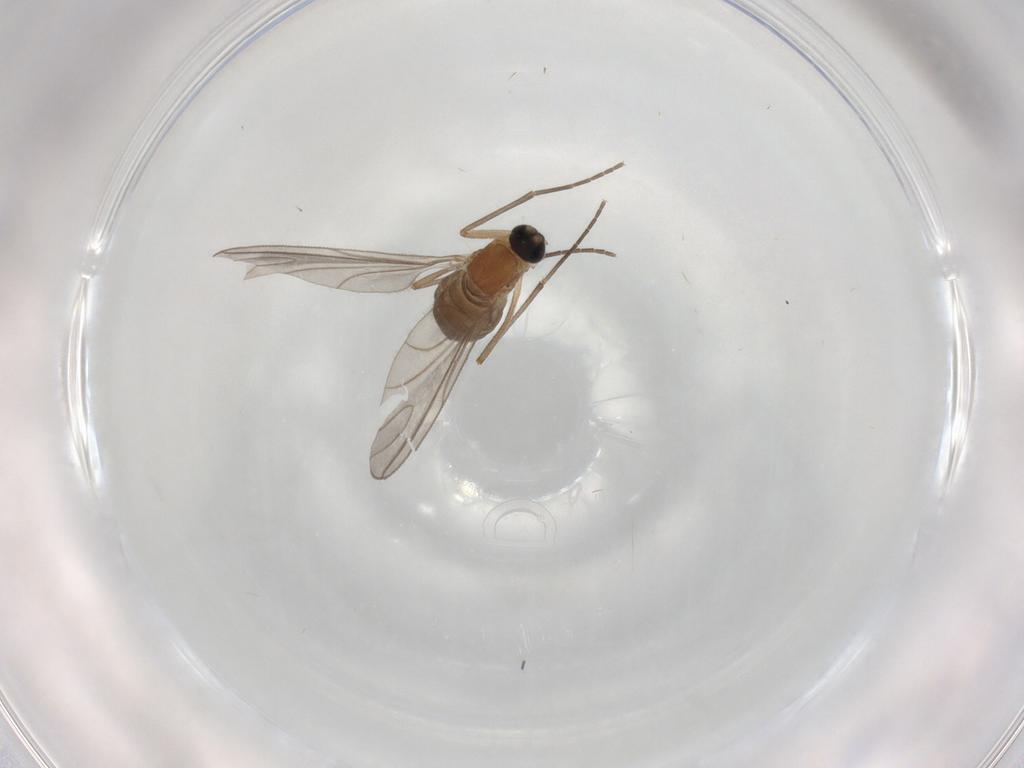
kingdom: Animalia
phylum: Arthropoda
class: Insecta
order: Diptera
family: Sciaridae
